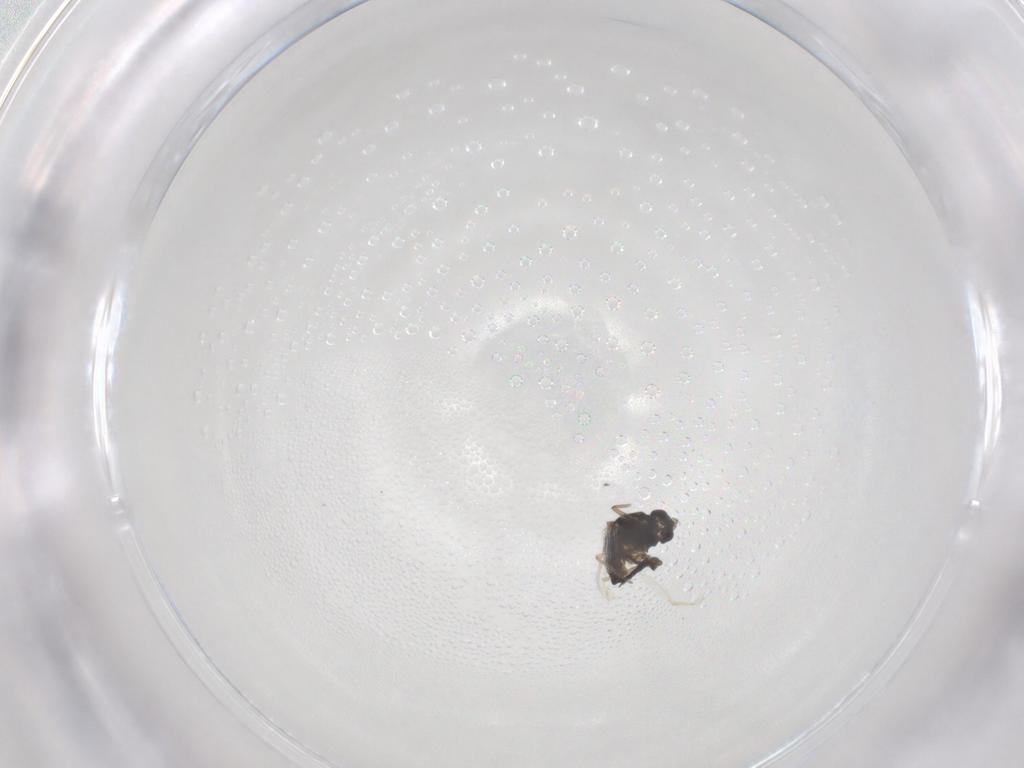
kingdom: Animalia
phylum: Arthropoda
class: Insecta
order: Diptera
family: Cecidomyiidae
